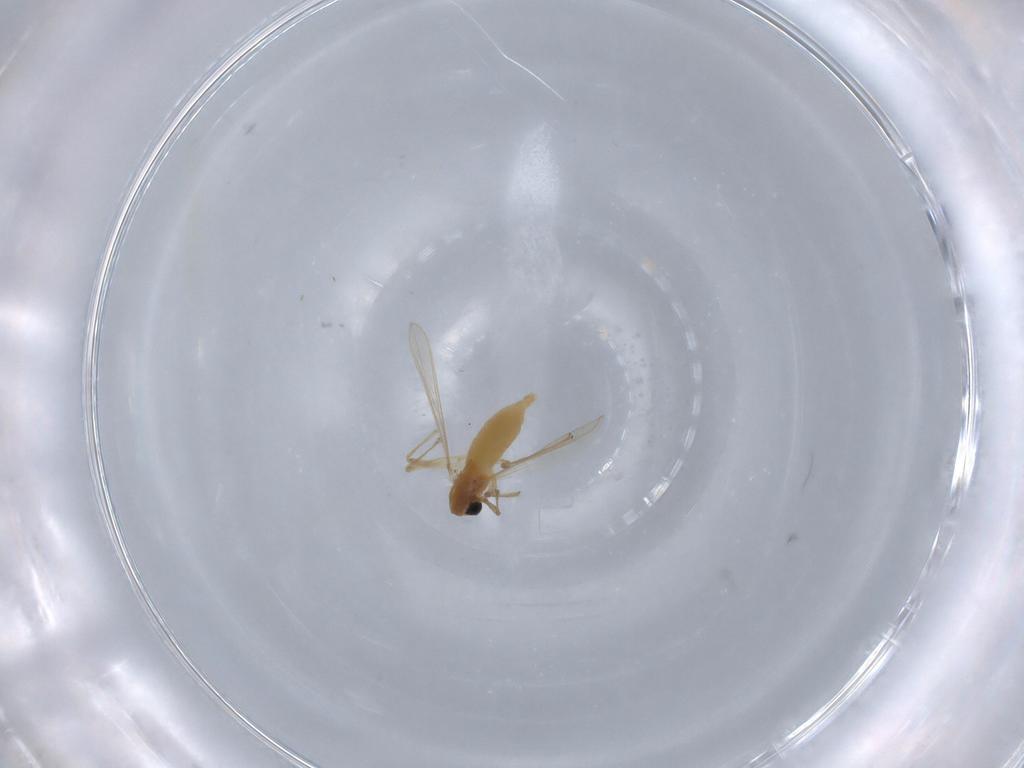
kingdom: Animalia
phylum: Arthropoda
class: Insecta
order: Diptera
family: Chironomidae
